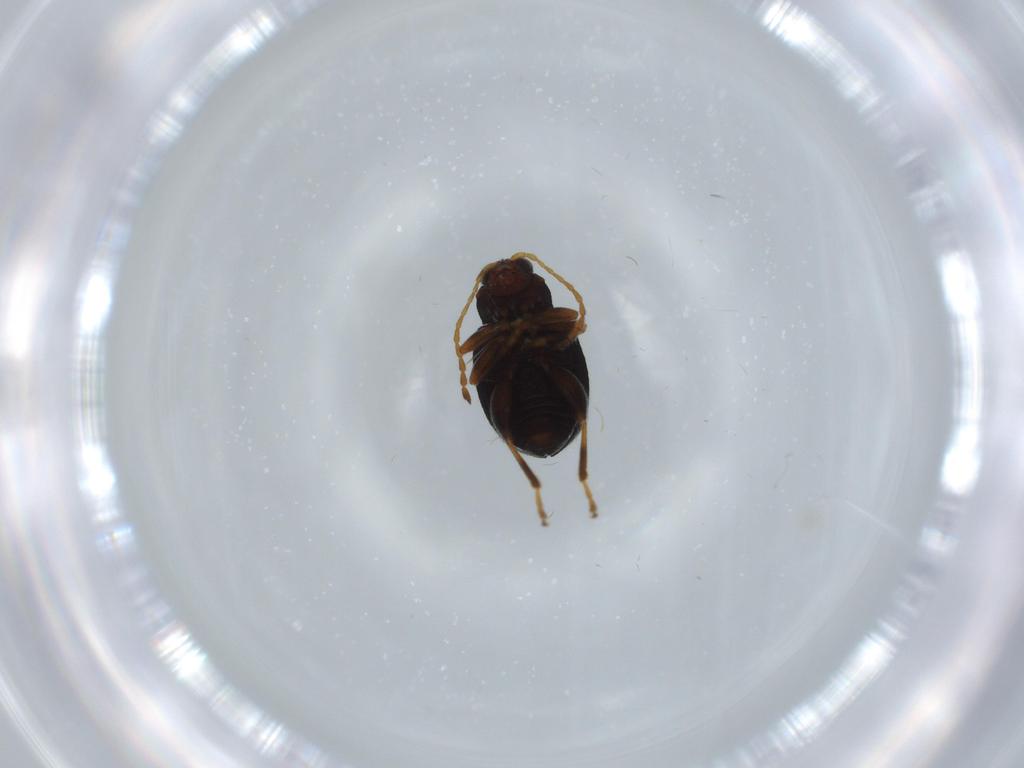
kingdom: Animalia
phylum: Arthropoda
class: Insecta
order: Coleoptera
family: Chrysomelidae
